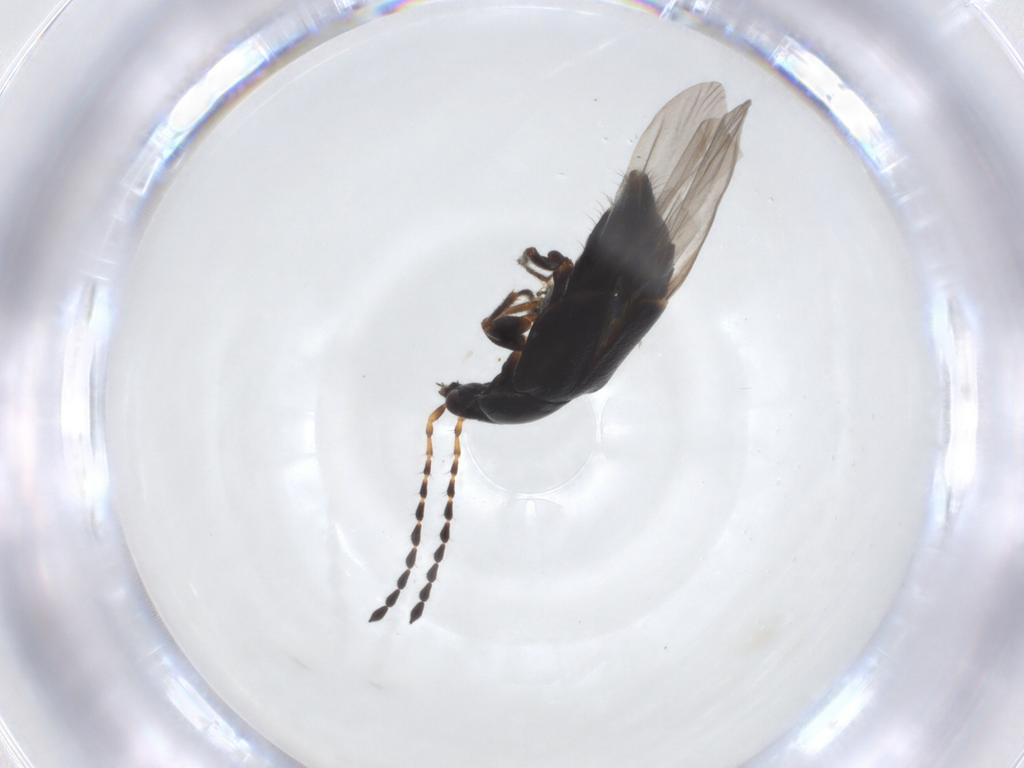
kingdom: Animalia
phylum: Arthropoda
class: Insecta
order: Coleoptera
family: Staphylinidae
